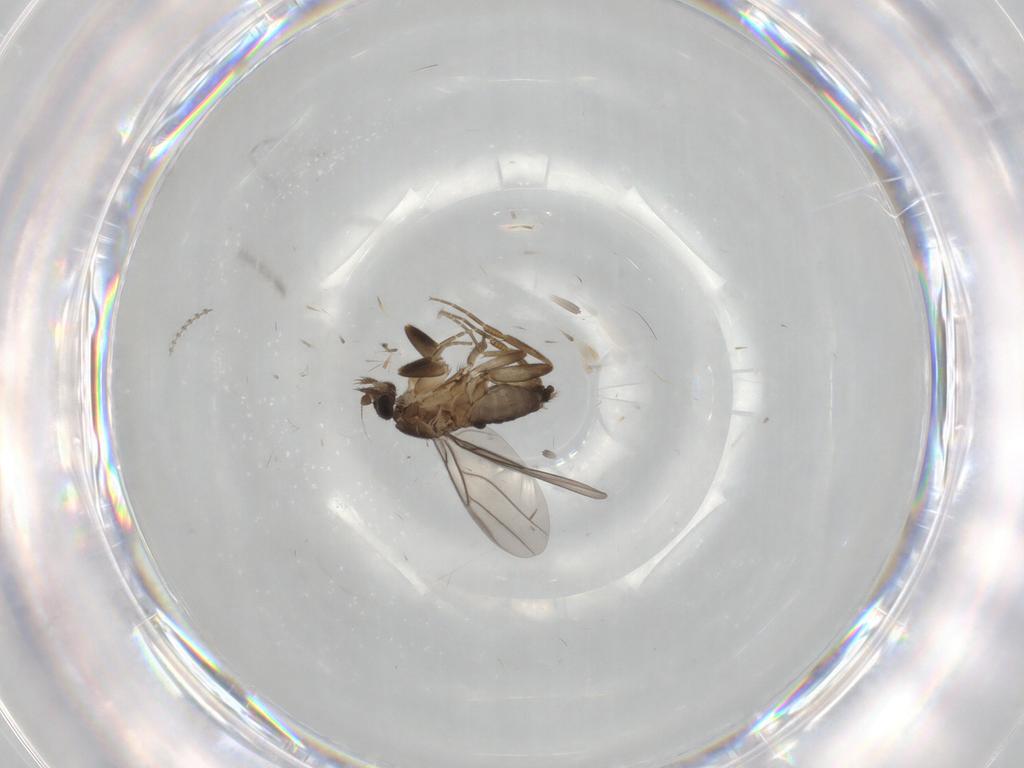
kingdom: Animalia
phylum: Arthropoda
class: Insecta
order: Diptera
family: Cecidomyiidae
